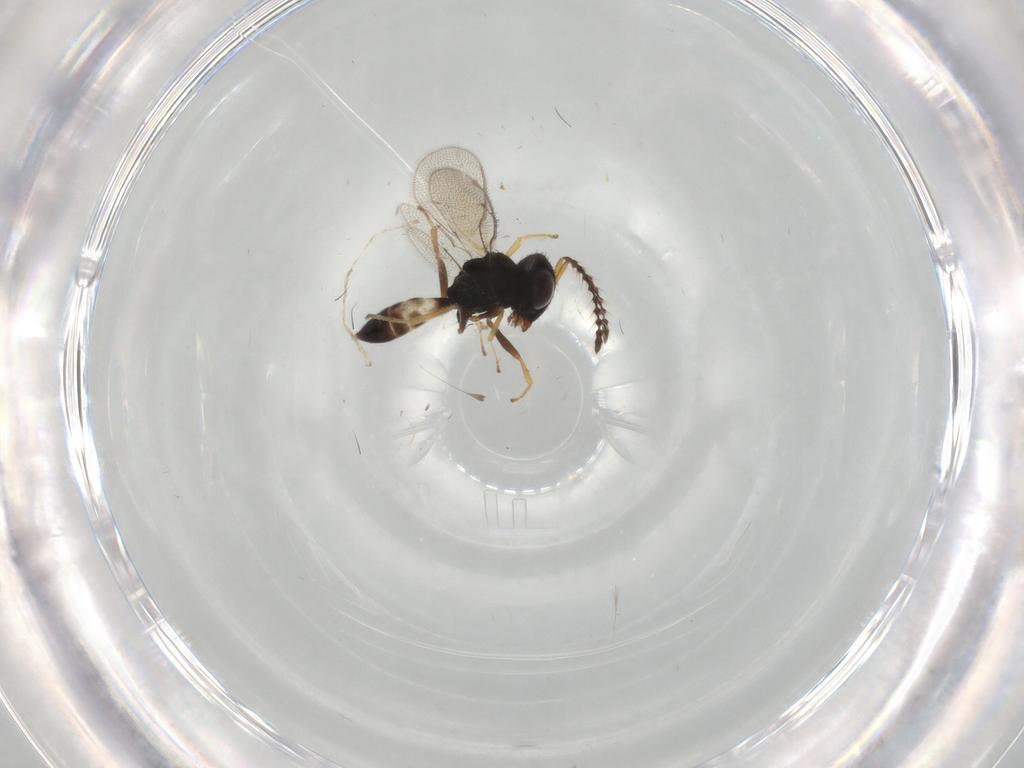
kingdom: Animalia
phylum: Arthropoda
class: Insecta
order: Hymenoptera
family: Pteromalidae
